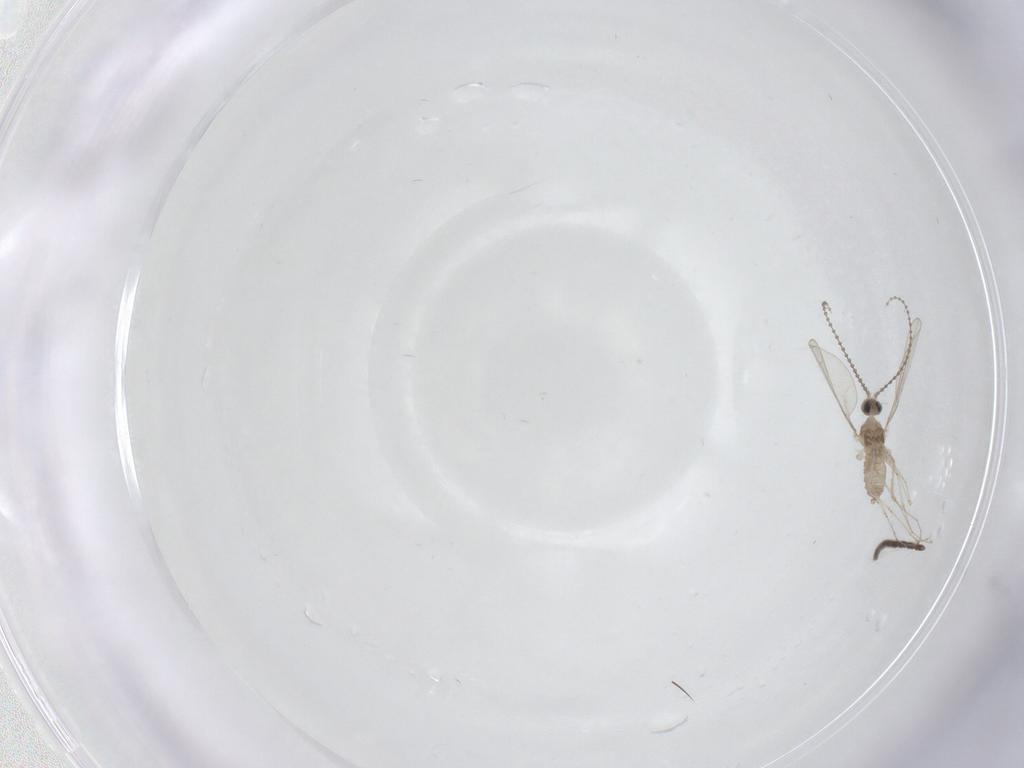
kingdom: Animalia
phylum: Arthropoda
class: Insecta
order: Diptera
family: Sciaridae
